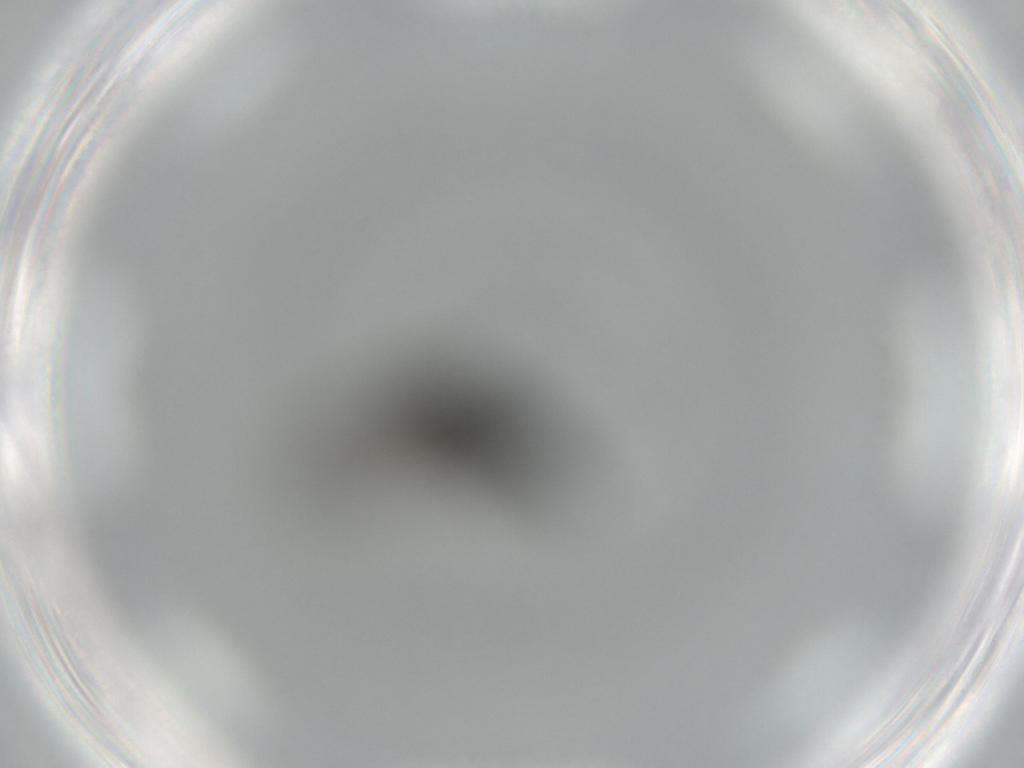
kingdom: Animalia
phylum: Arthropoda
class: Insecta
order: Diptera
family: Sciaridae
